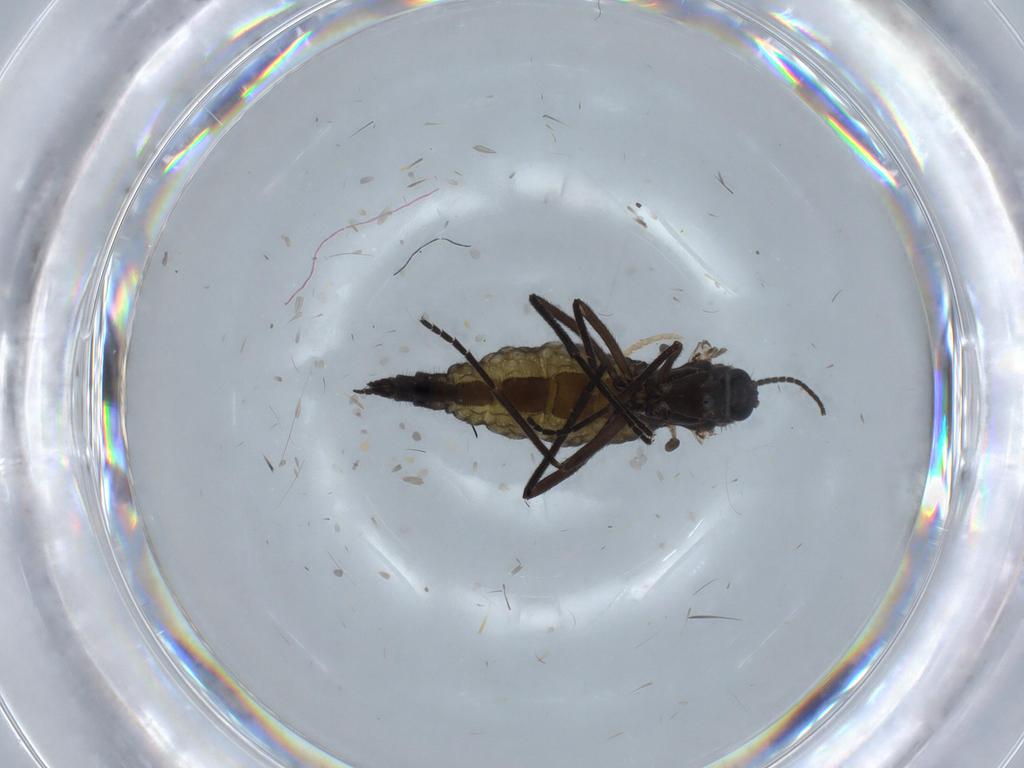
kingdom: Animalia
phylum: Arthropoda
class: Insecta
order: Diptera
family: Sciaridae
